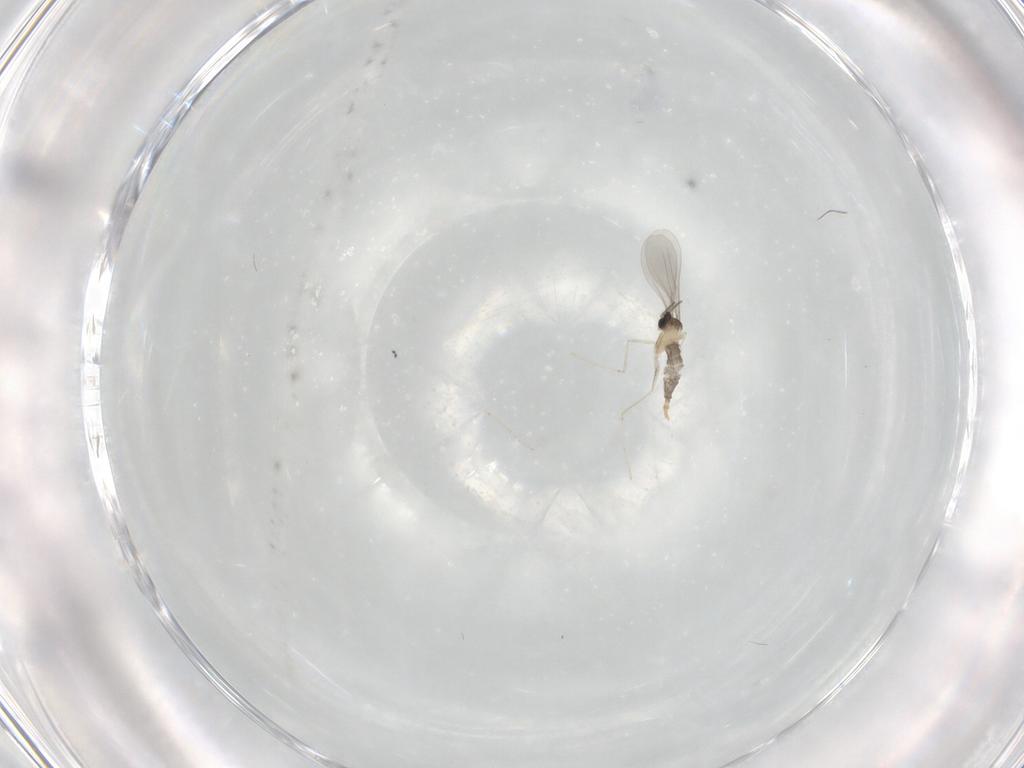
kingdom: Animalia
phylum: Arthropoda
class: Insecta
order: Diptera
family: Cecidomyiidae
